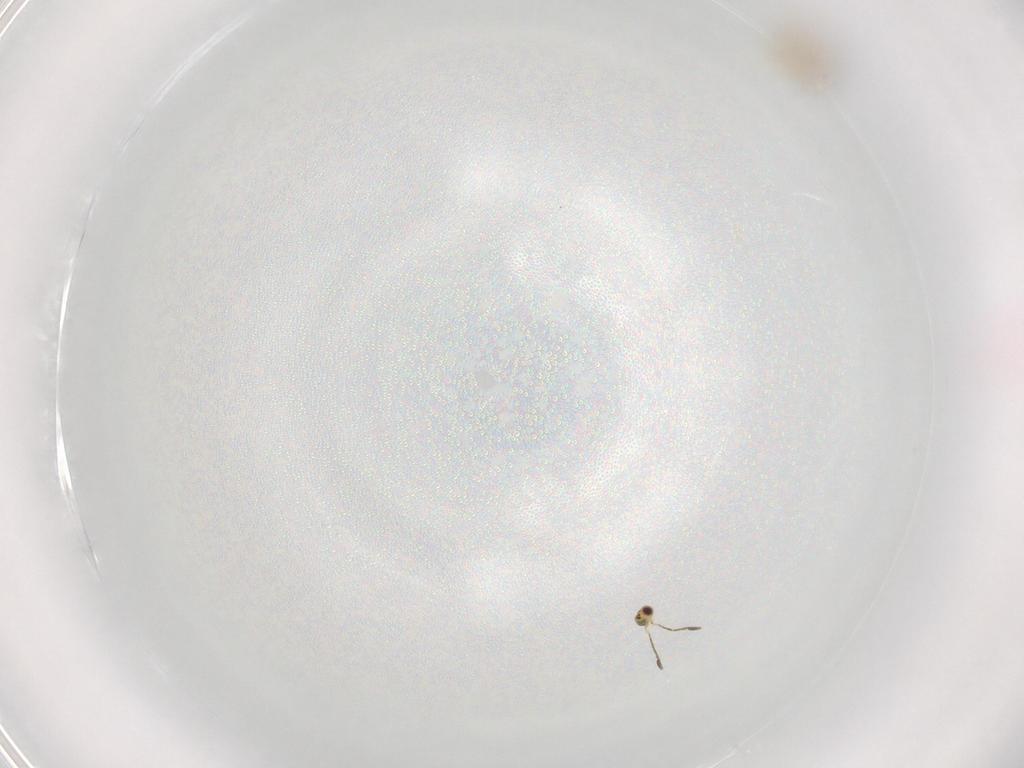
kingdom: Animalia
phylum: Arthropoda
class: Insecta
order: Hymenoptera
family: Mymaridae
